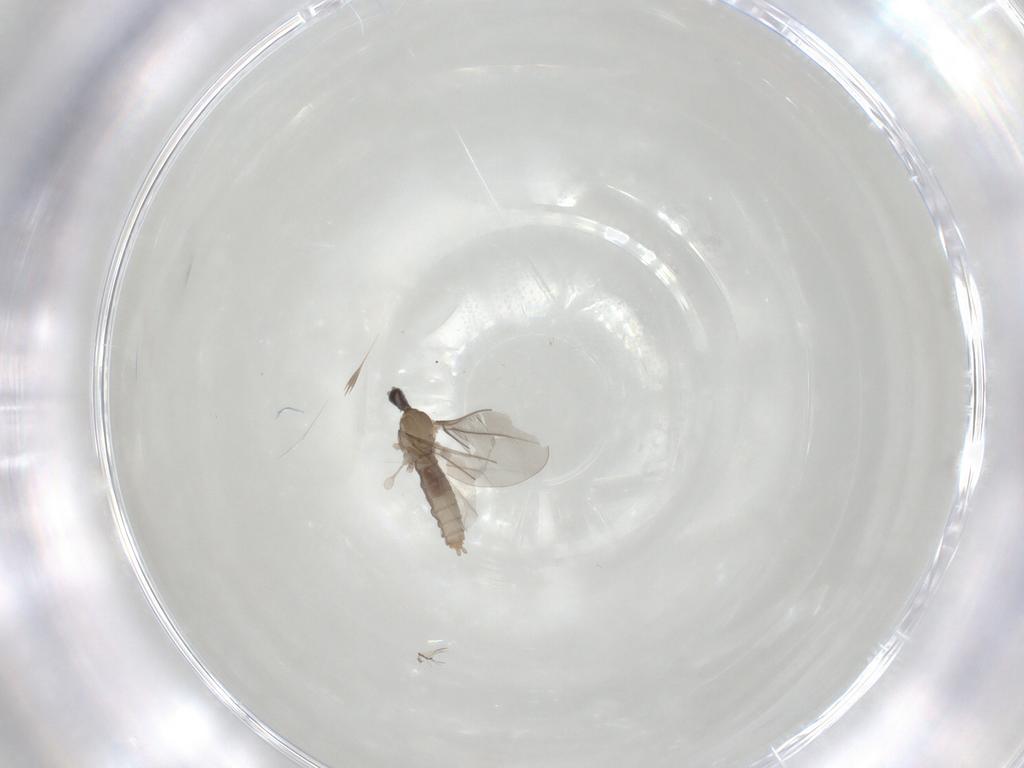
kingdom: Animalia
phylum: Arthropoda
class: Insecta
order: Diptera
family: Cecidomyiidae
